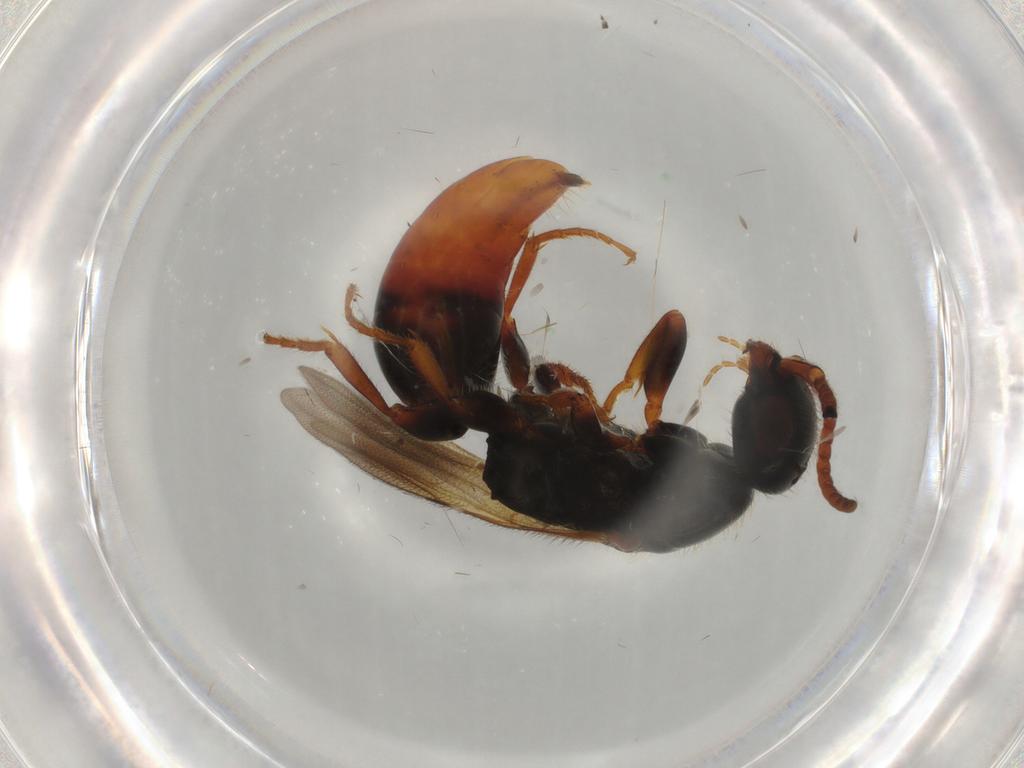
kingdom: Animalia
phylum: Arthropoda
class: Insecta
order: Hymenoptera
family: Bethylidae
